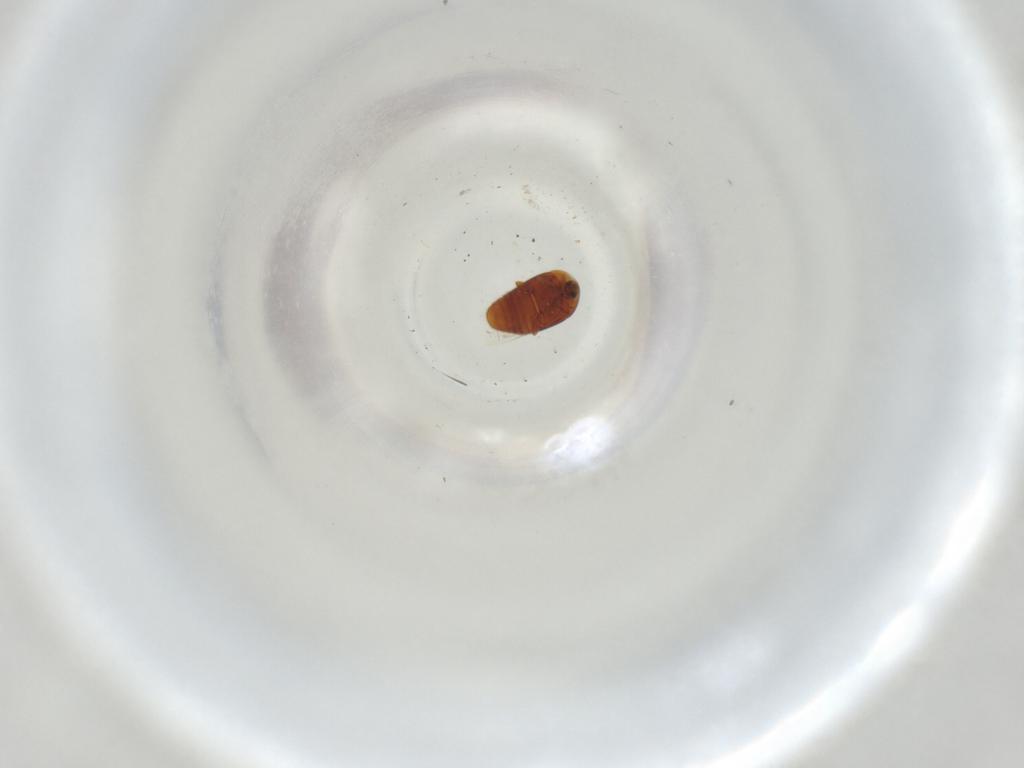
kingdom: Animalia
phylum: Arthropoda
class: Insecta
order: Coleoptera
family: Corylophidae
